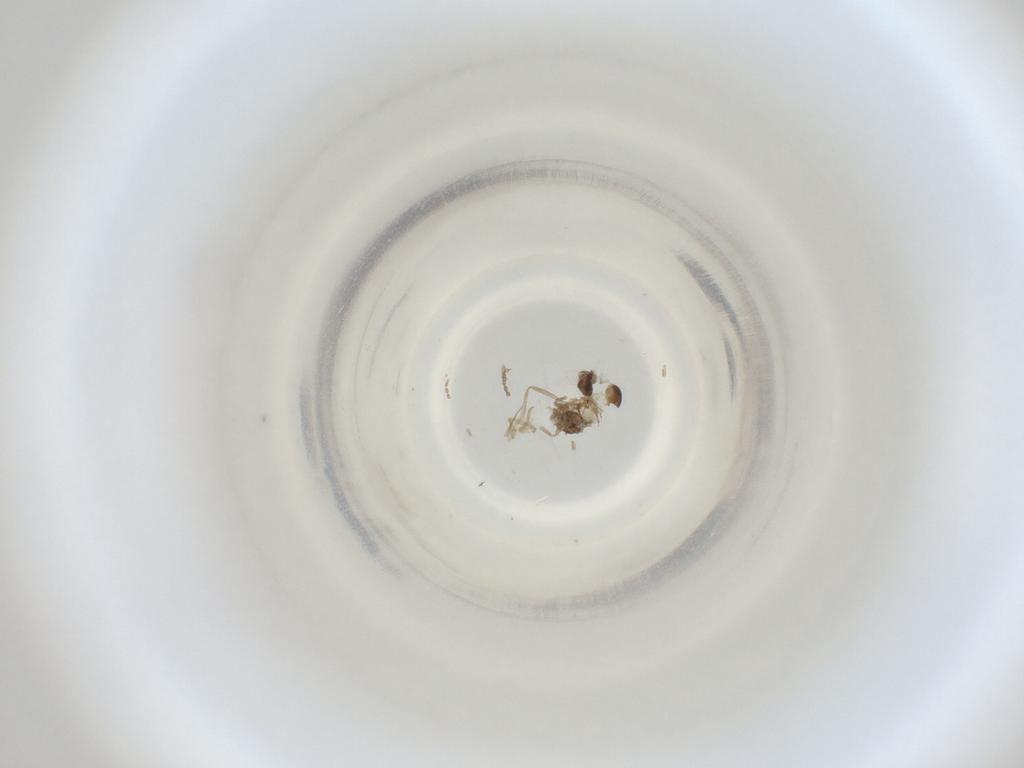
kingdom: Animalia
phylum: Arthropoda
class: Insecta
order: Diptera
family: Cecidomyiidae
